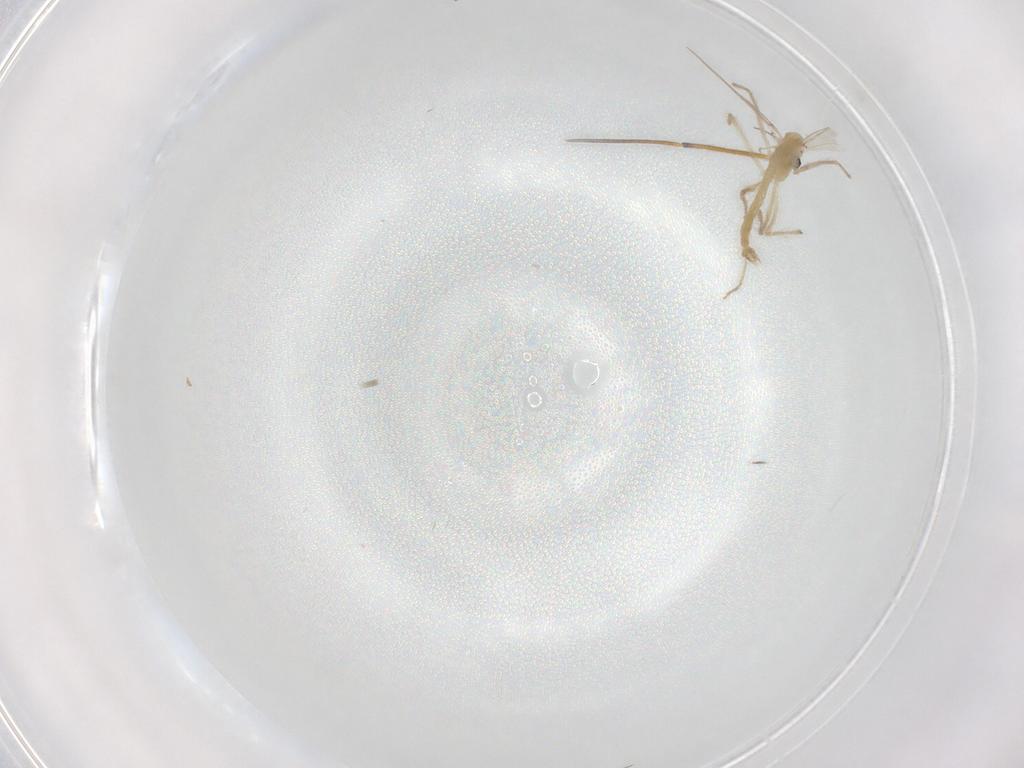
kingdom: Animalia
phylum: Arthropoda
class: Insecta
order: Diptera
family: Chironomidae
